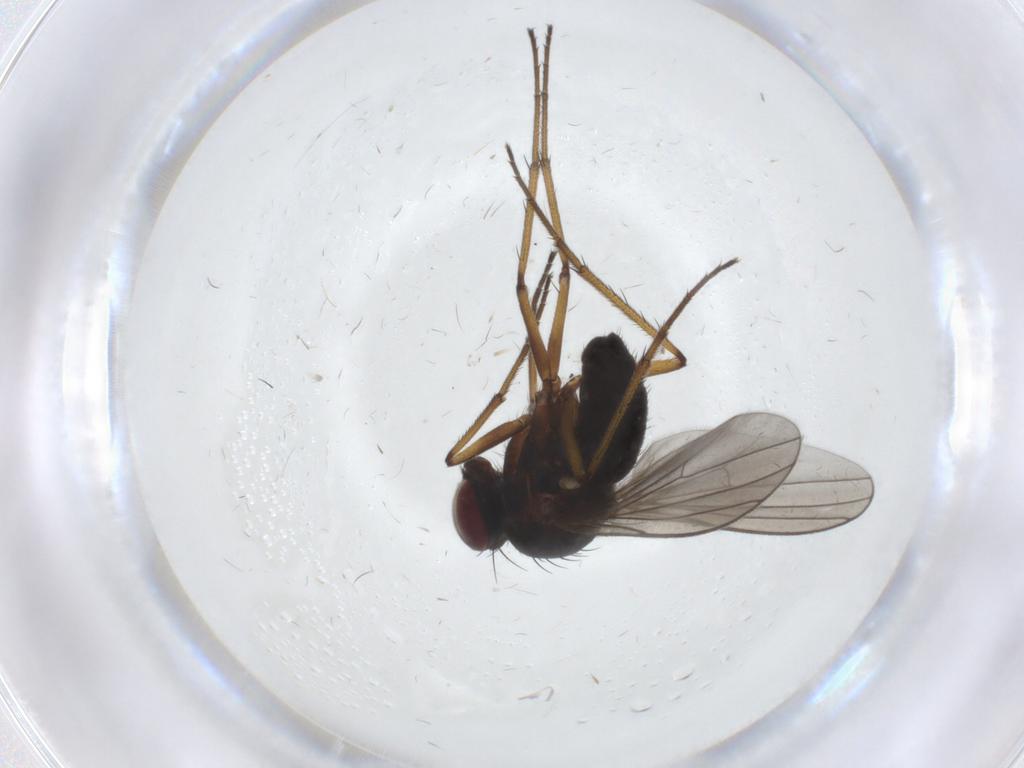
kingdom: Animalia
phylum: Arthropoda
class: Insecta
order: Diptera
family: Dolichopodidae
